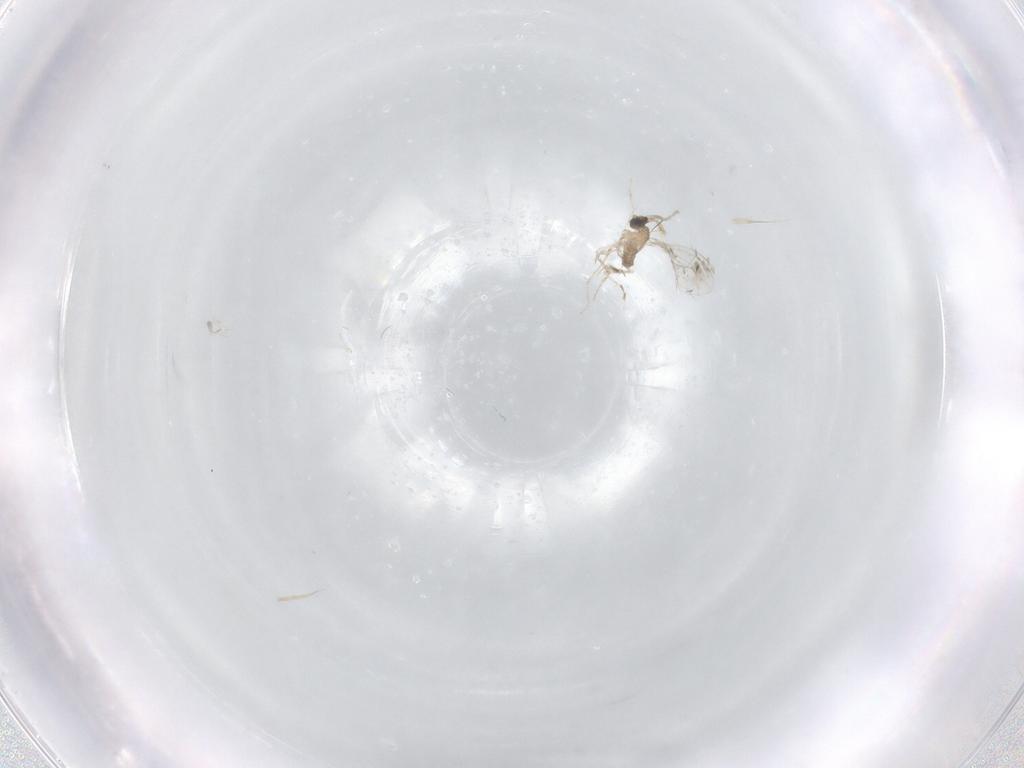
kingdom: Animalia
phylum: Arthropoda
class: Insecta
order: Diptera
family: Cecidomyiidae
